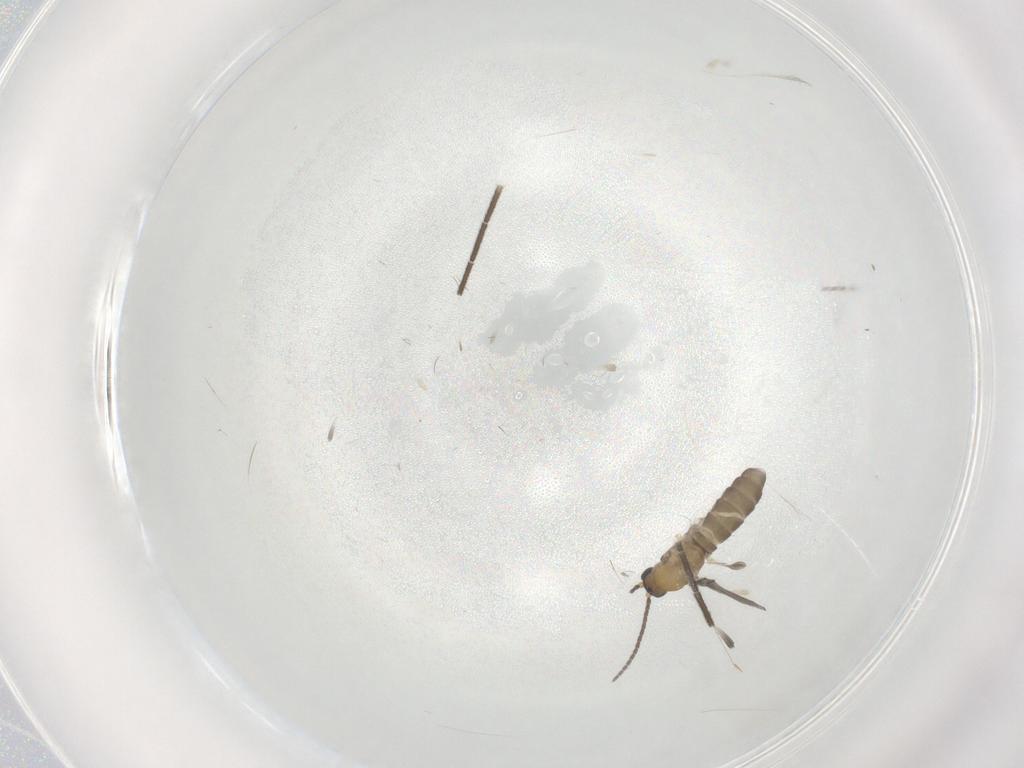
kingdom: Animalia
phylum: Arthropoda
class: Insecta
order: Diptera
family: Sciaridae
